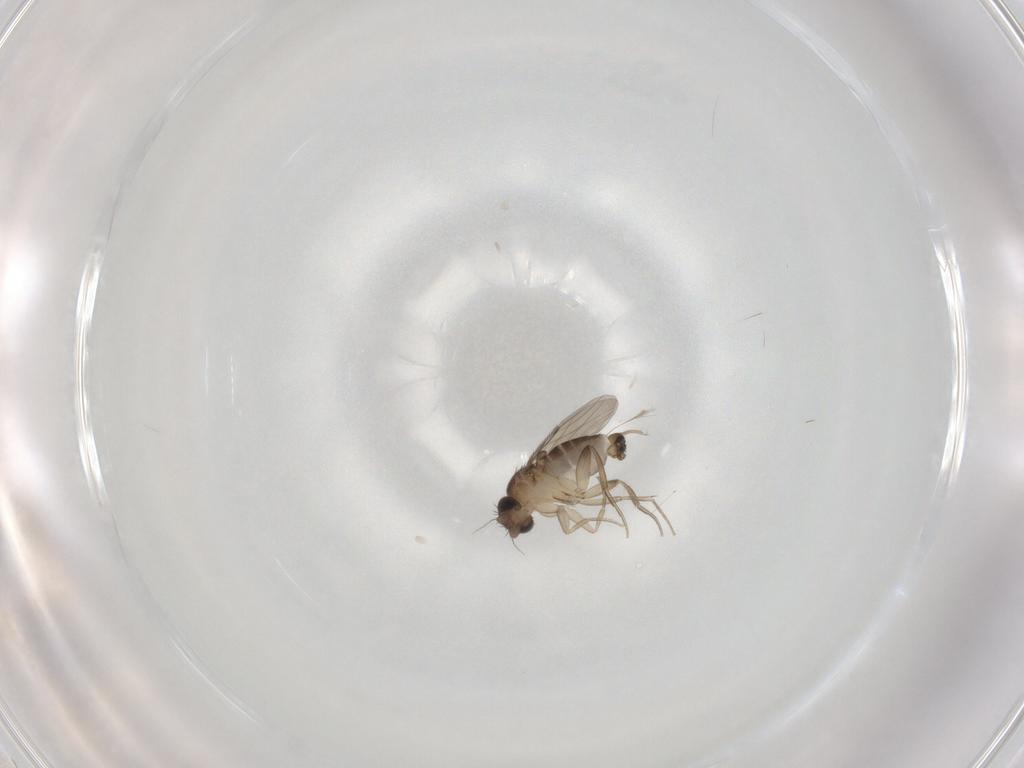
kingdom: Animalia
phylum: Arthropoda
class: Insecta
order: Diptera
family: Phoridae
